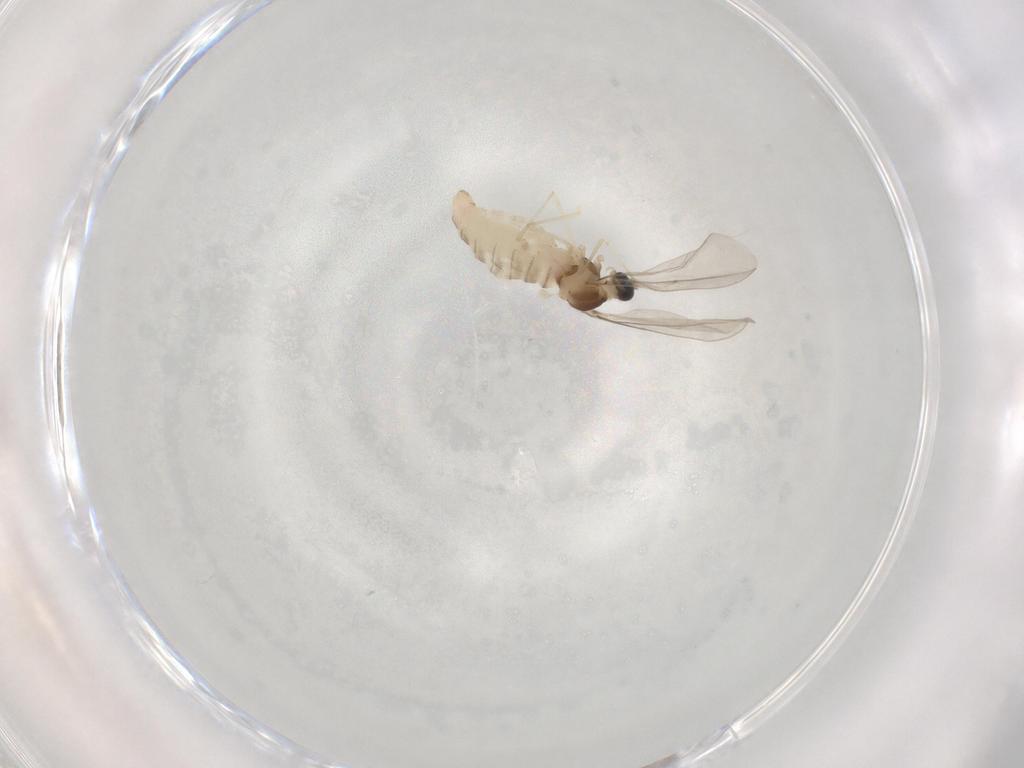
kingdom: Animalia
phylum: Arthropoda
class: Insecta
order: Diptera
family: Cecidomyiidae
